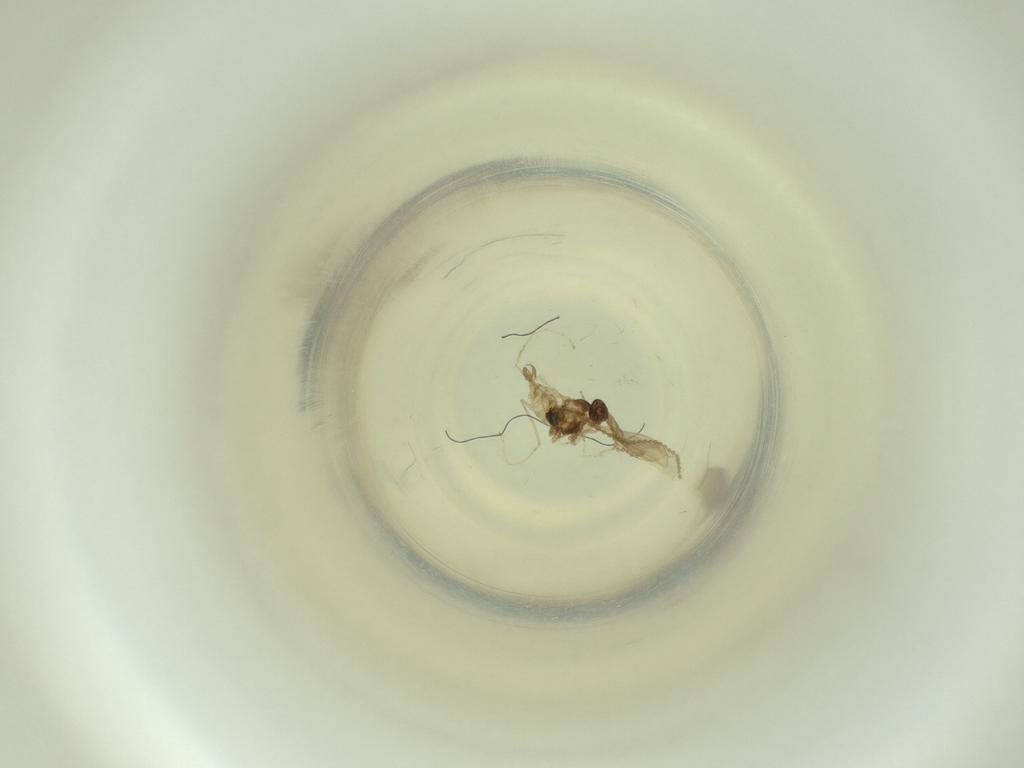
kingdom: Animalia
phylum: Arthropoda
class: Insecta
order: Diptera
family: Cecidomyiidae
